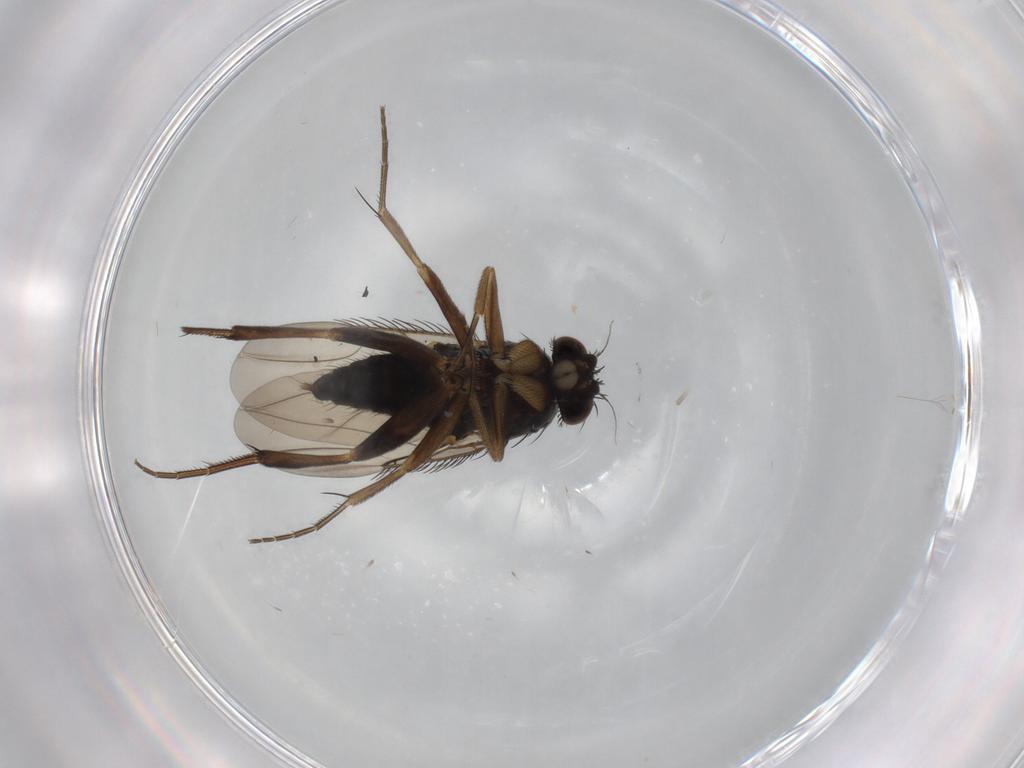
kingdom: Animalia
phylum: Arthropoda
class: Insecta
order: Diptera
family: Phoridae
